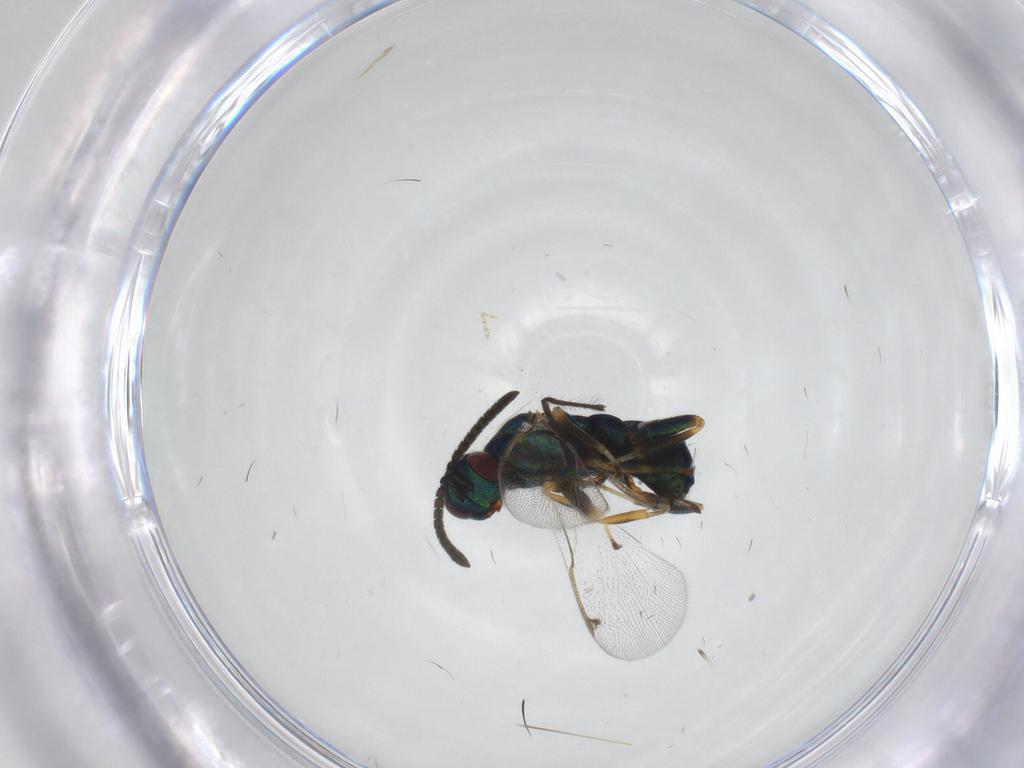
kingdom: Animalia
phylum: Arthropoda
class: Insecta
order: Hymenoptera
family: Torymidae
